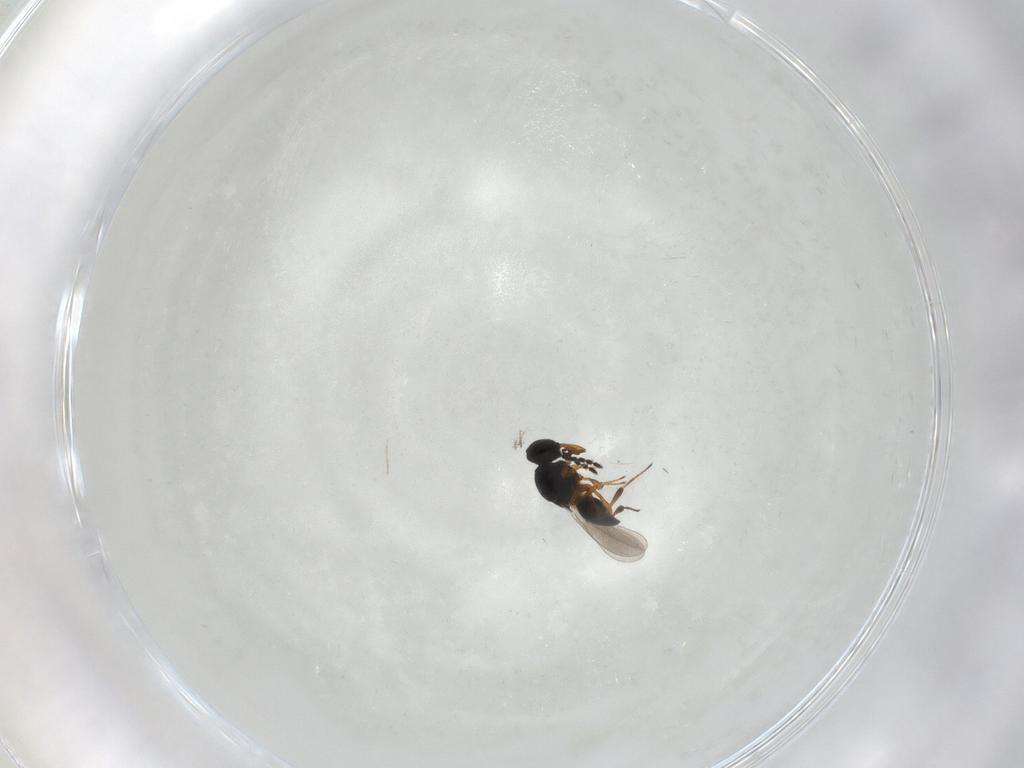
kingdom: Animalia
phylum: Arthropoda
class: Insecta
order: Hymenoptera
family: Platygastridae
